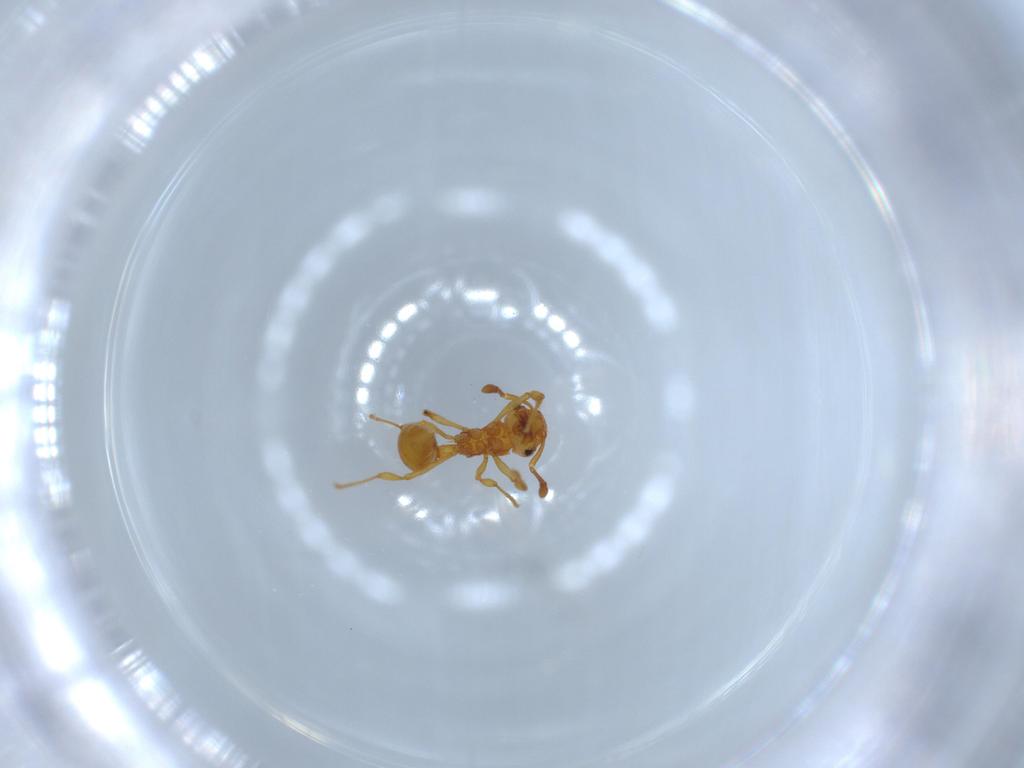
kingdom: Animalia
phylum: Arthropoda
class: Insecta
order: Hymenoptera
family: Formicidae
